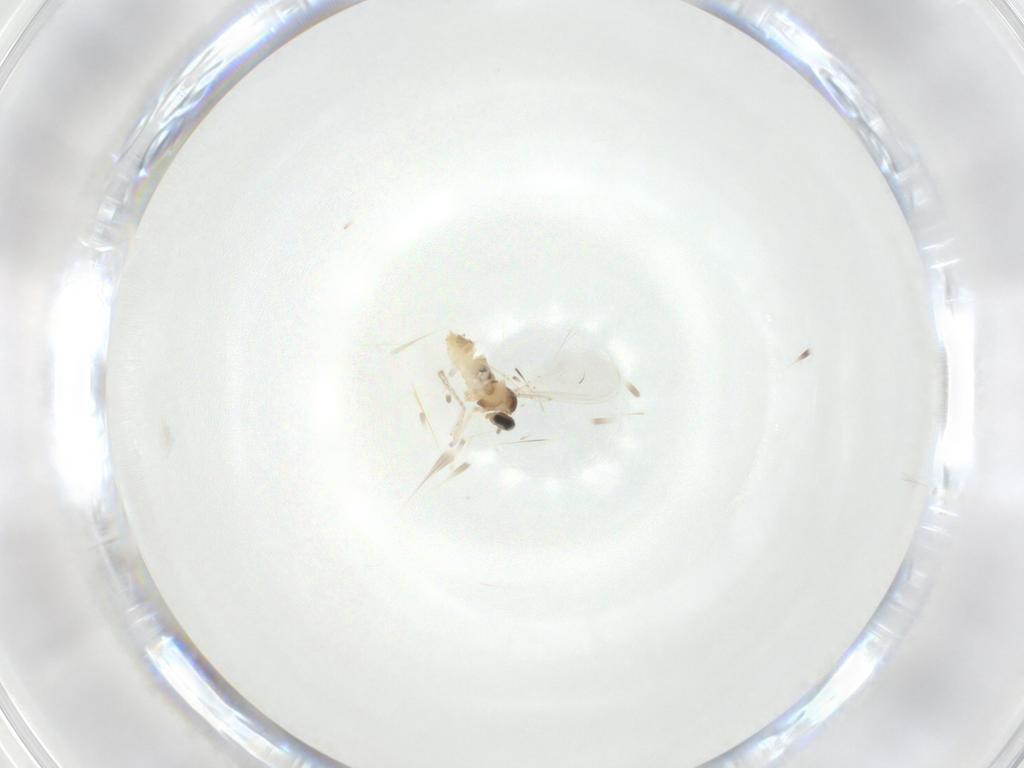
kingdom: Animalia
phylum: Arthropoda
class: Insecta
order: Diptera
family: Cecidomyiidae
